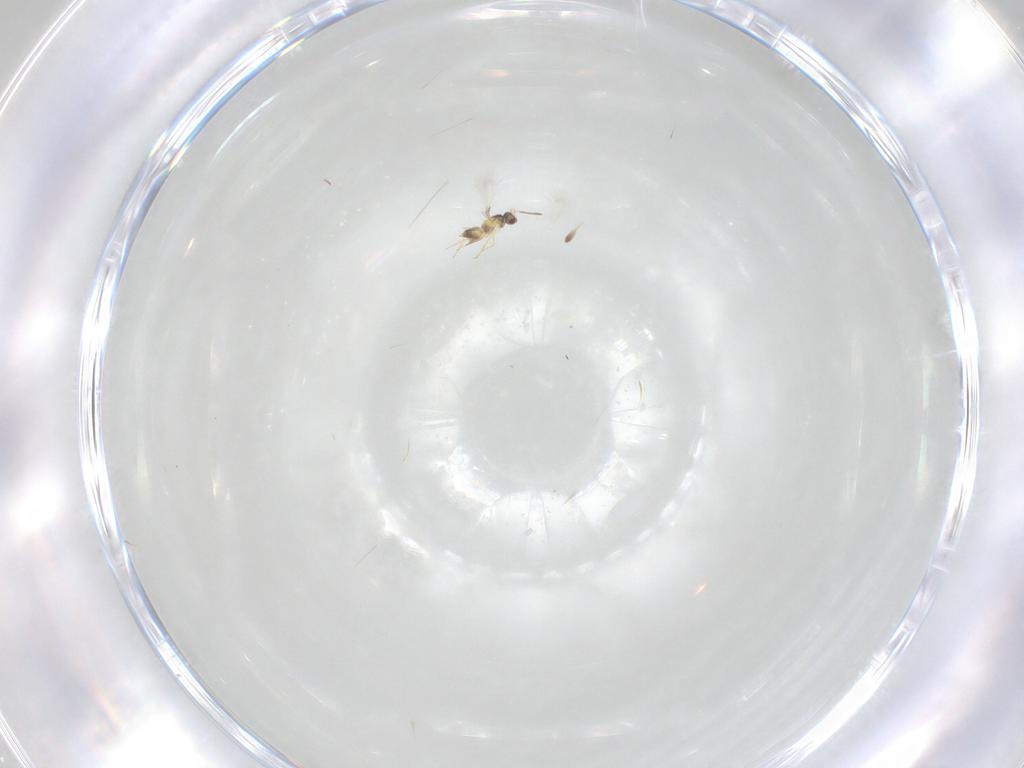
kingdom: Animalia
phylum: Arthropoda
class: Insecta
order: Hymenoptera
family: Mymaridae
